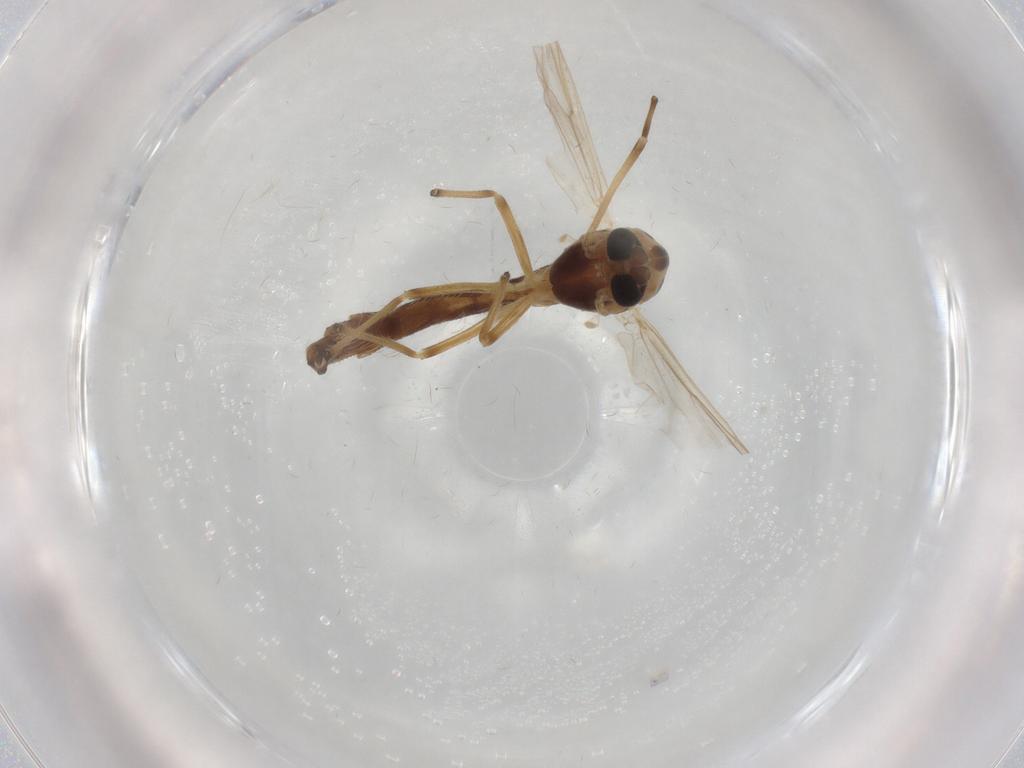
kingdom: Animalia
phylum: Arthropoda
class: Insecta
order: Diptera
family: Chironomidae
